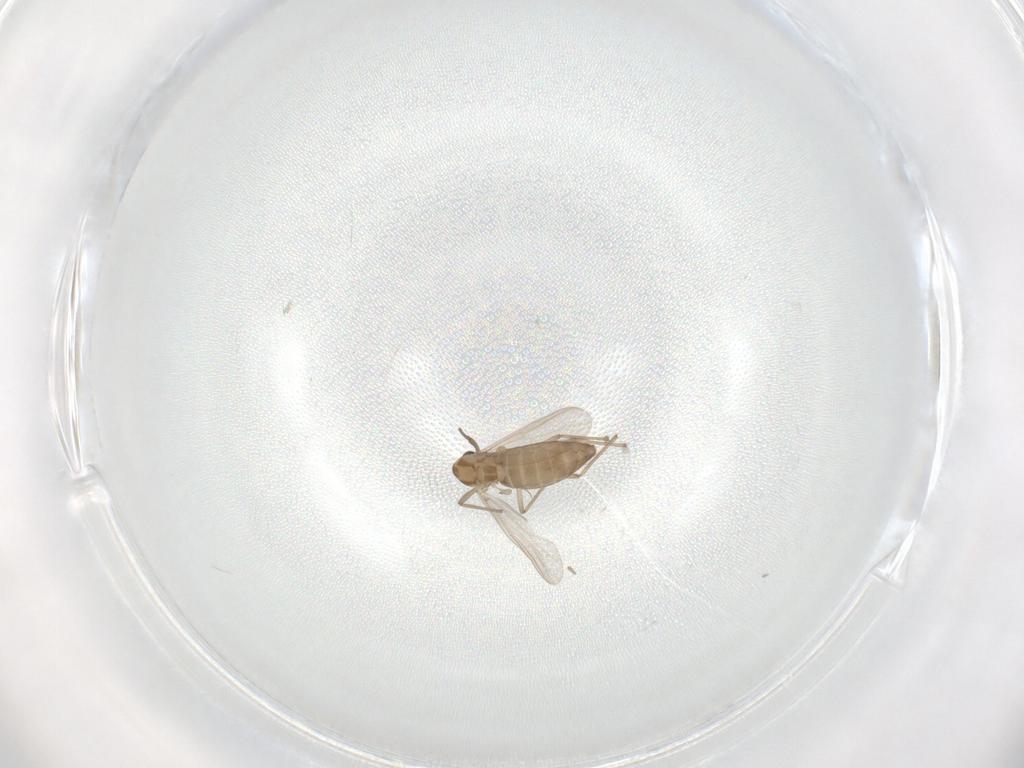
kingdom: Animalia
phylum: Arthropoda
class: Insecta
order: Diptera
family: Chironomidae
